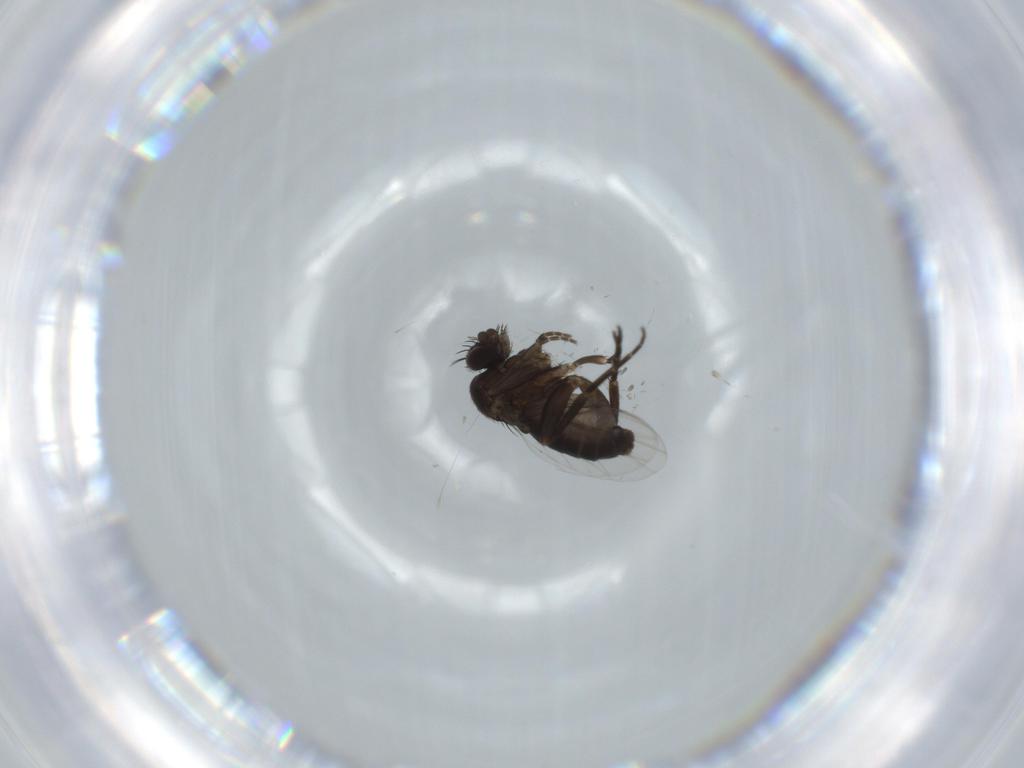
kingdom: Animalia
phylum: Arthropoda
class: Insecta
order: Diptera
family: Phoridae
